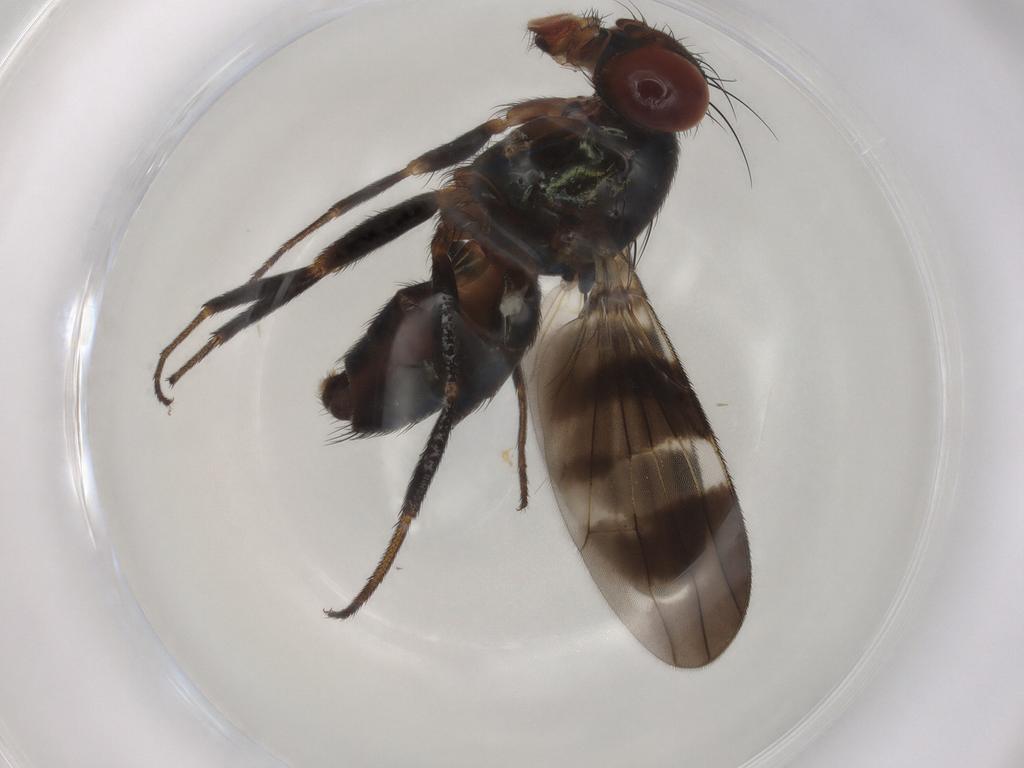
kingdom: Animalia
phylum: Arthropoda
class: Insecta
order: Diptera
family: Ulidiidae
